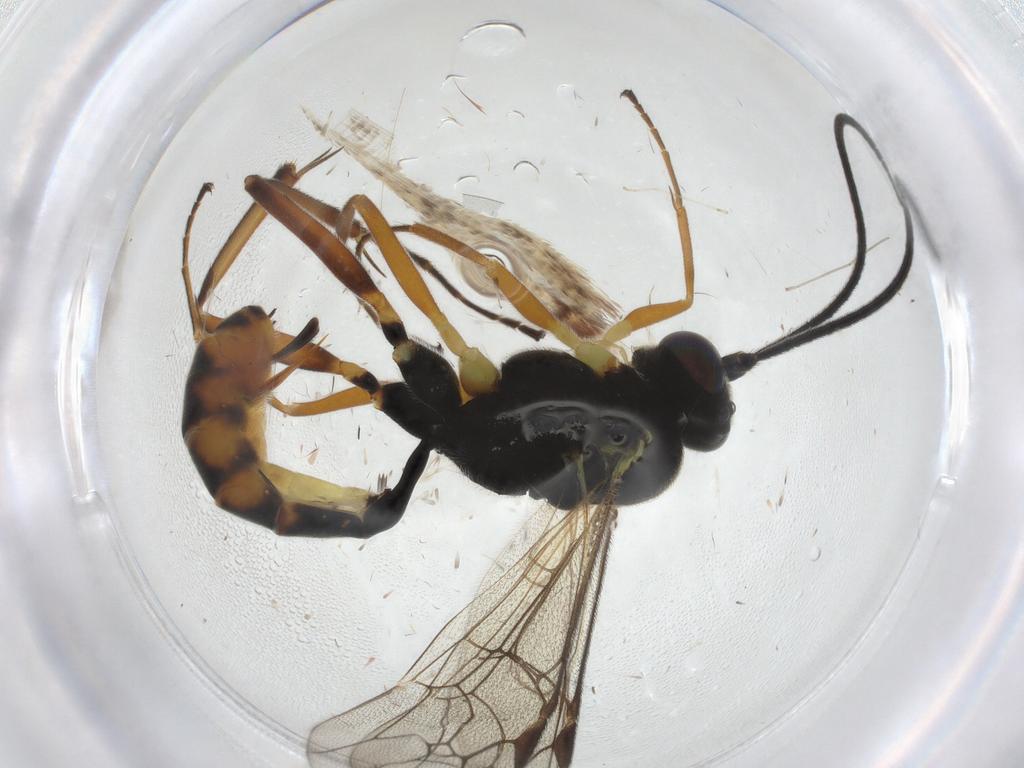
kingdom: Animalia
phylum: Arthropoda
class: Insecta
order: Hymenoptera
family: Ichneumonidae
